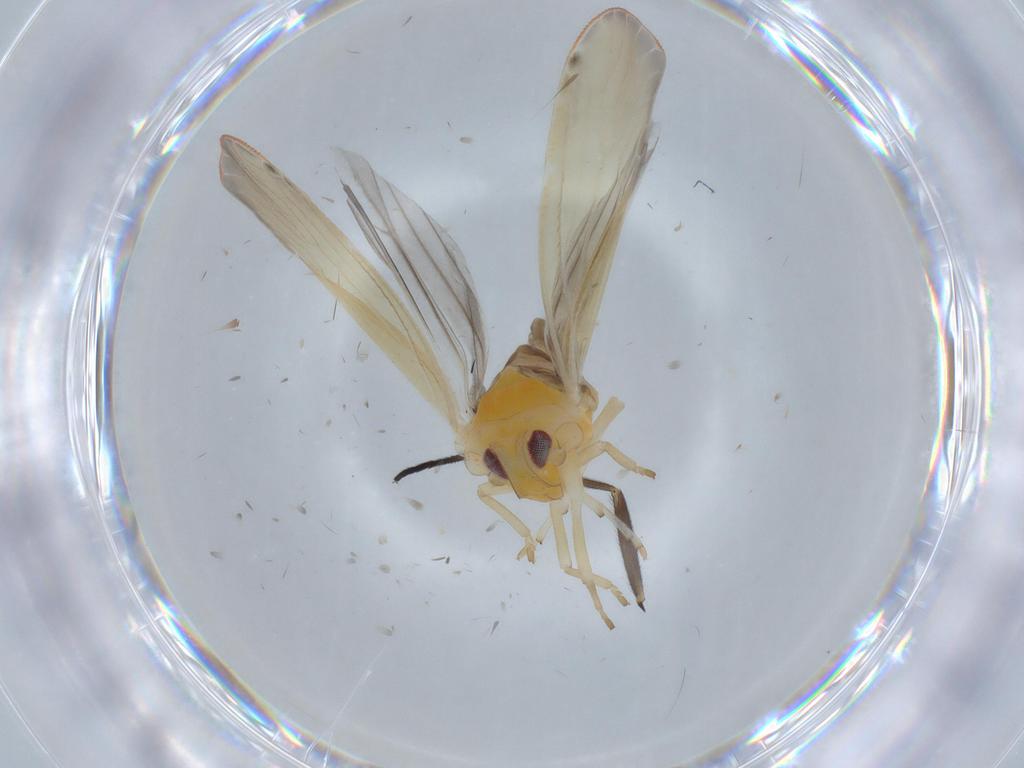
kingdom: Animalia
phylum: Arthropoda
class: Insecta
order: Hemiptera
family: Derbidae
